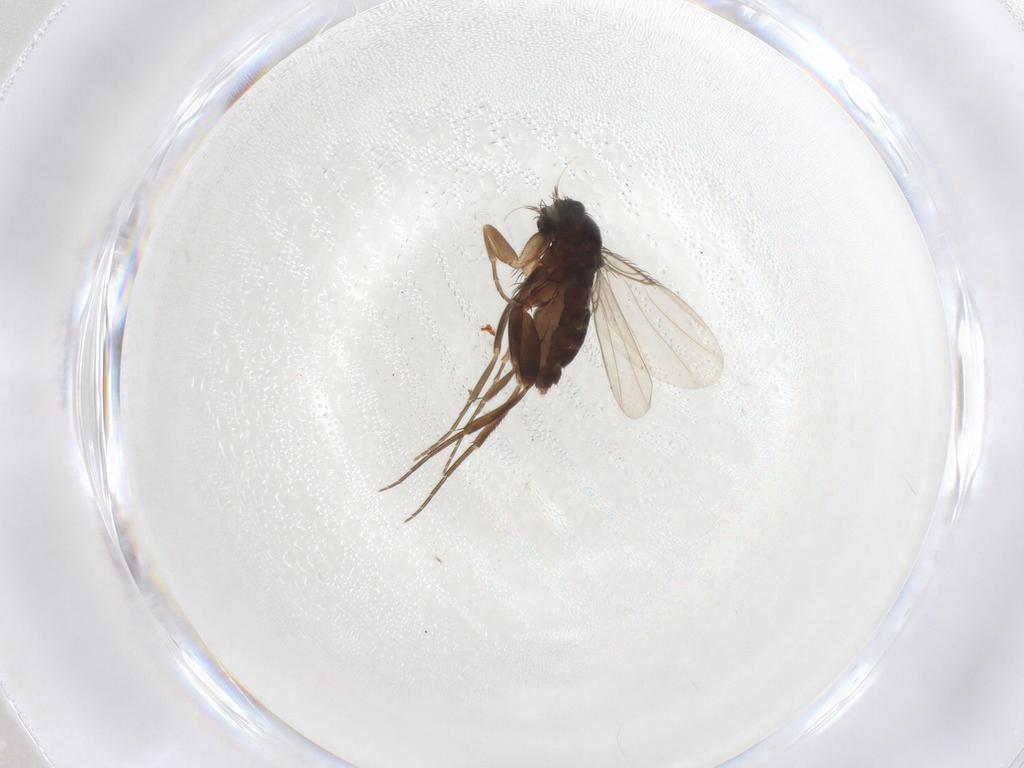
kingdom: Animalia
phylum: Arthropoda
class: Insecta
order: Diptera
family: Phoridae
